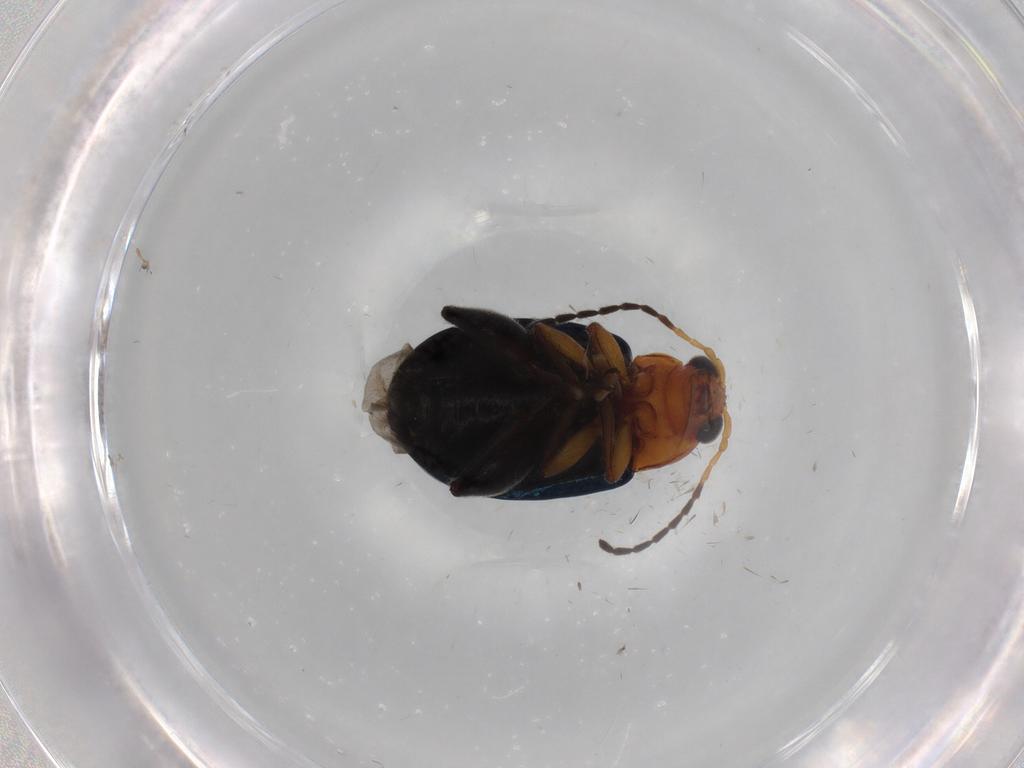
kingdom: Animalia
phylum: Arthropoda
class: Insecta
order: Coleoptera
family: Chrysomelidae
